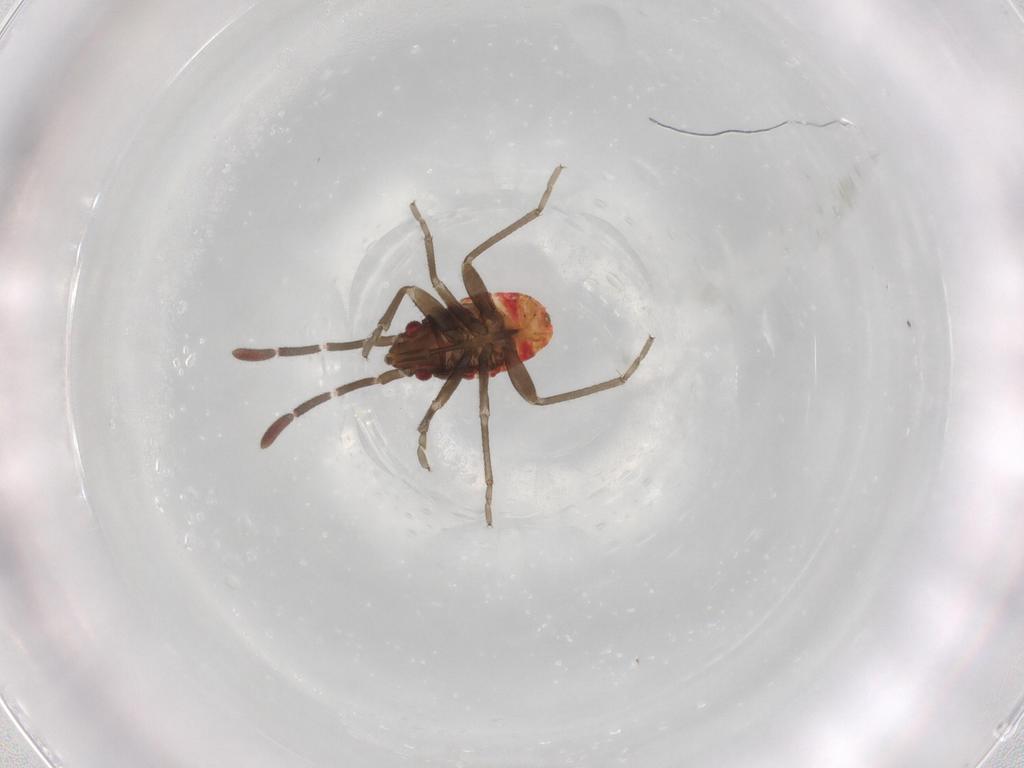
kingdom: Animalia
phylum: Arthropoda
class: Insecta
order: Hemiptera
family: Rhyparochromidae
